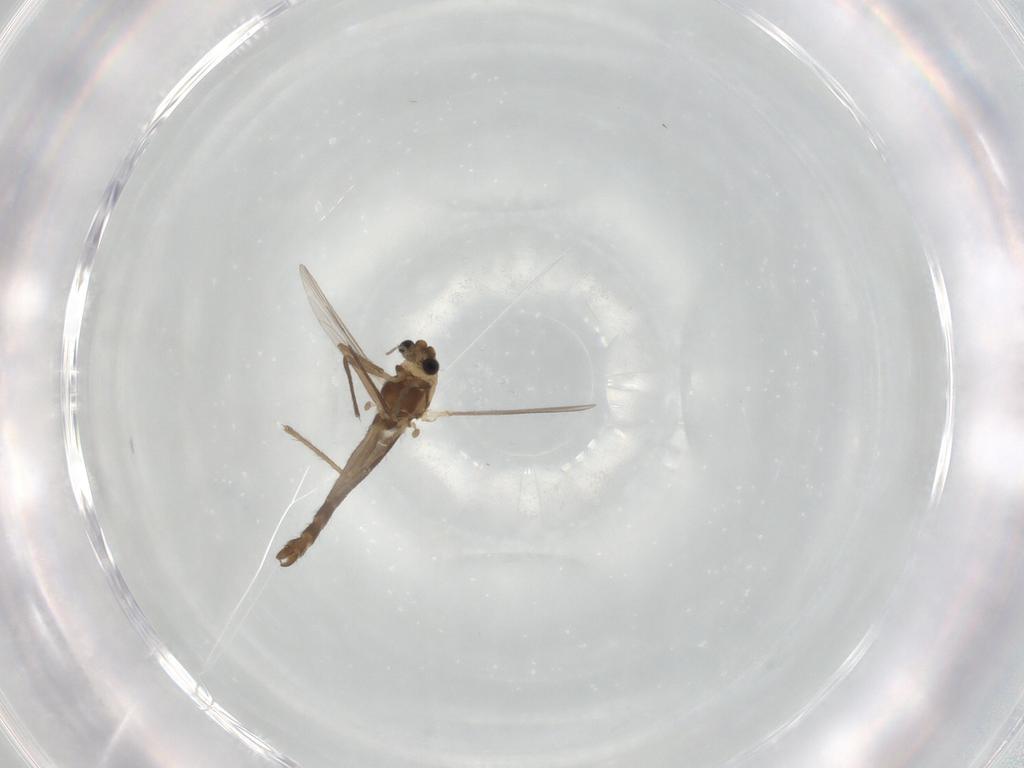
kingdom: Animalia
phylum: Arthropoda
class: Insecta
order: Diptera
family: Chironomidae
